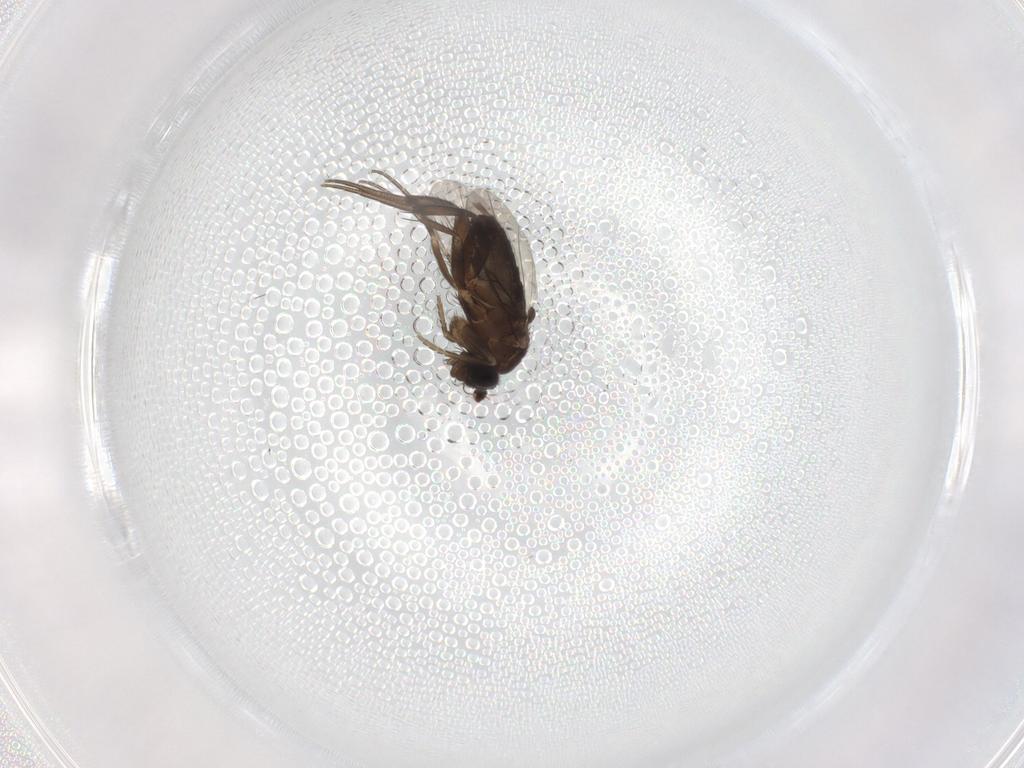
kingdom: Animalia
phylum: Arthropoda
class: Insecta
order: Diptera
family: Phoridae
